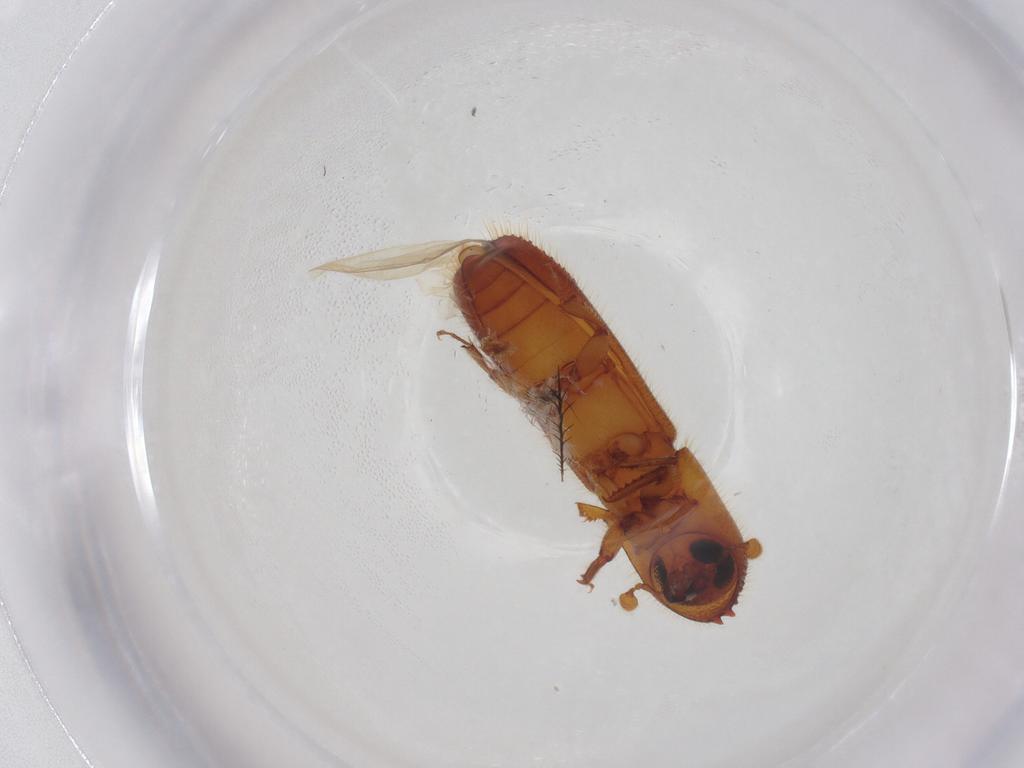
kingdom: Animalia
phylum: Arthropoda
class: Insecta
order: Coleoptera
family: Curculionidae
